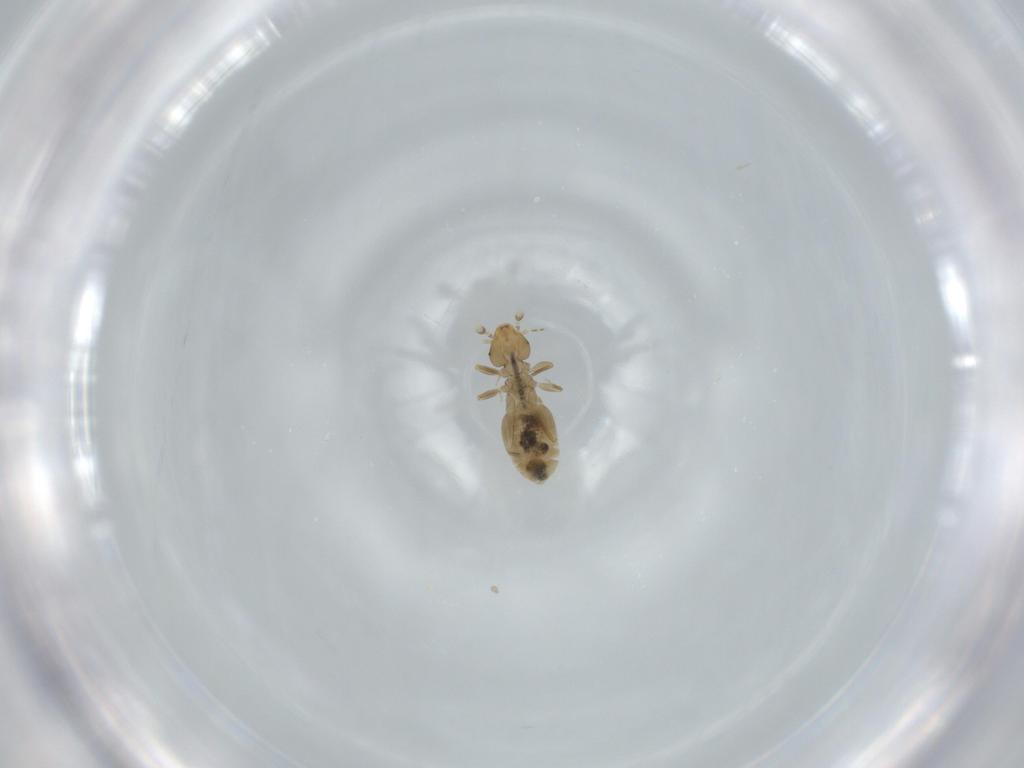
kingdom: Animalia
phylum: Arthropoda
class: Insecta
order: Psocodea
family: Liposcelididae
